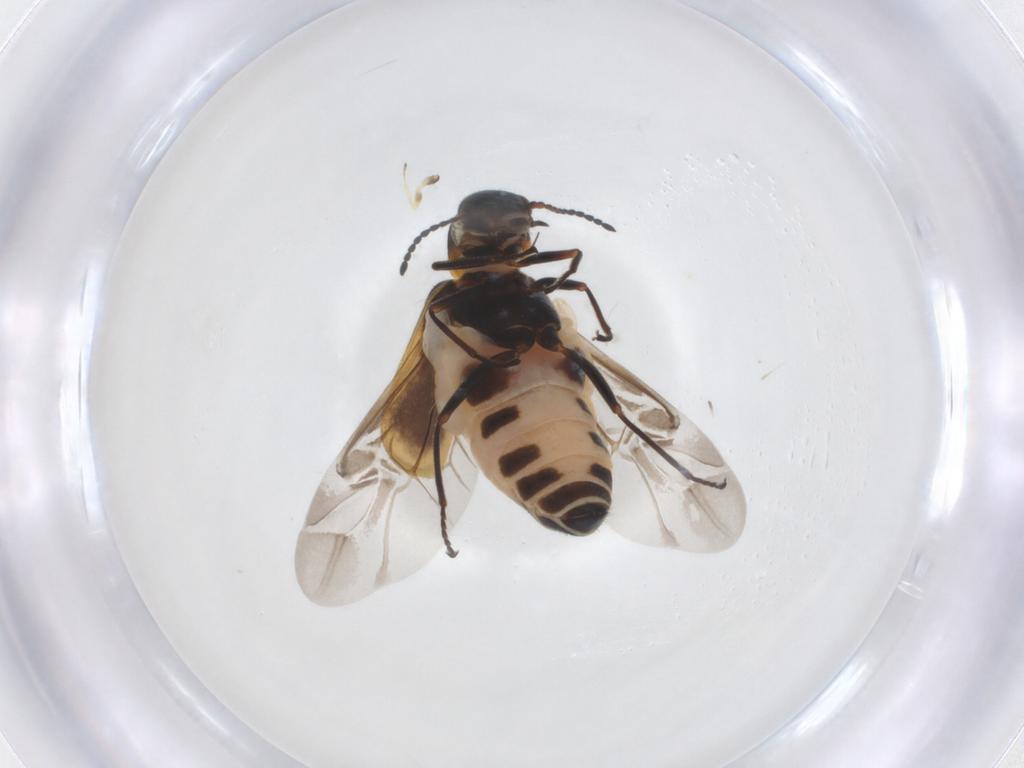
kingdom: Animalia
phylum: Arthropoda
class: Insecta
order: Coleoptera
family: Melyridae
